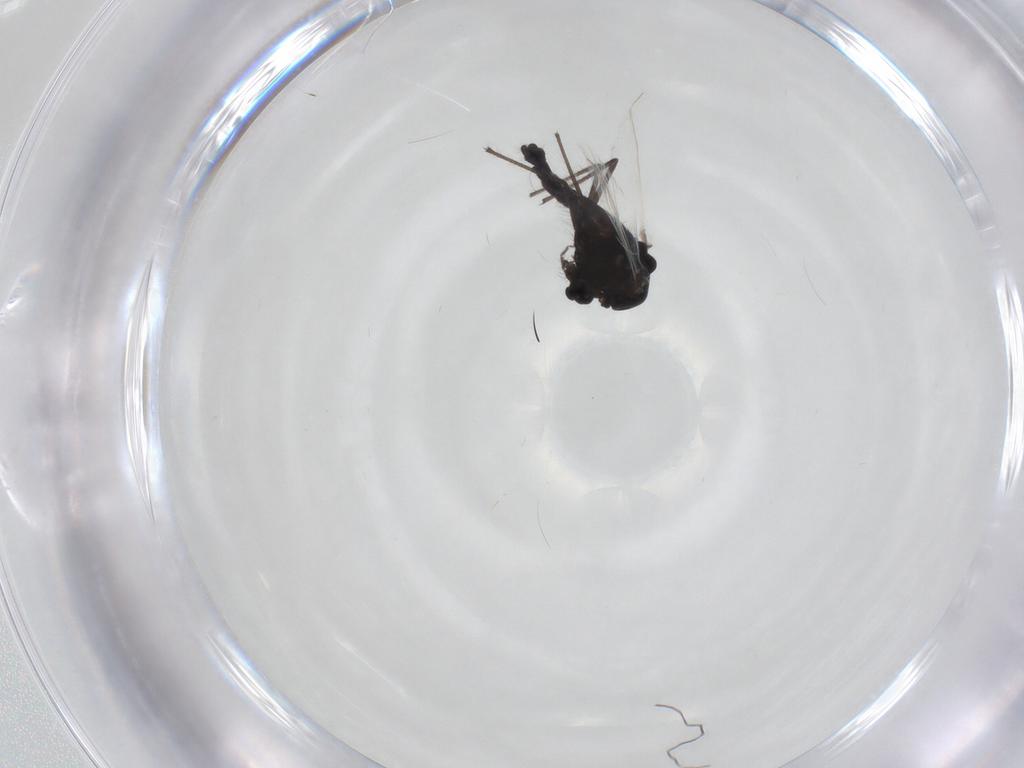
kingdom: Animalia
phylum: Arthropoda
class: Insecta
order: Diptera
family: Chironomidae
